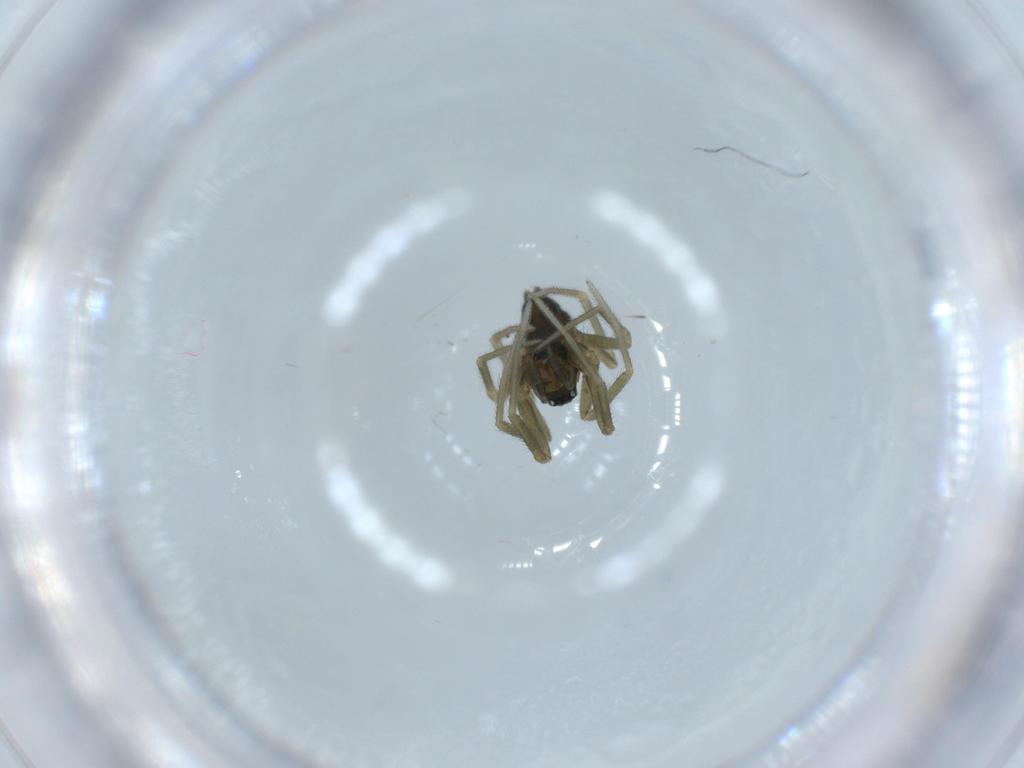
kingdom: Animalia
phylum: Arthropoda
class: Arachnida
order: Araneae
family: Linyphiidae
